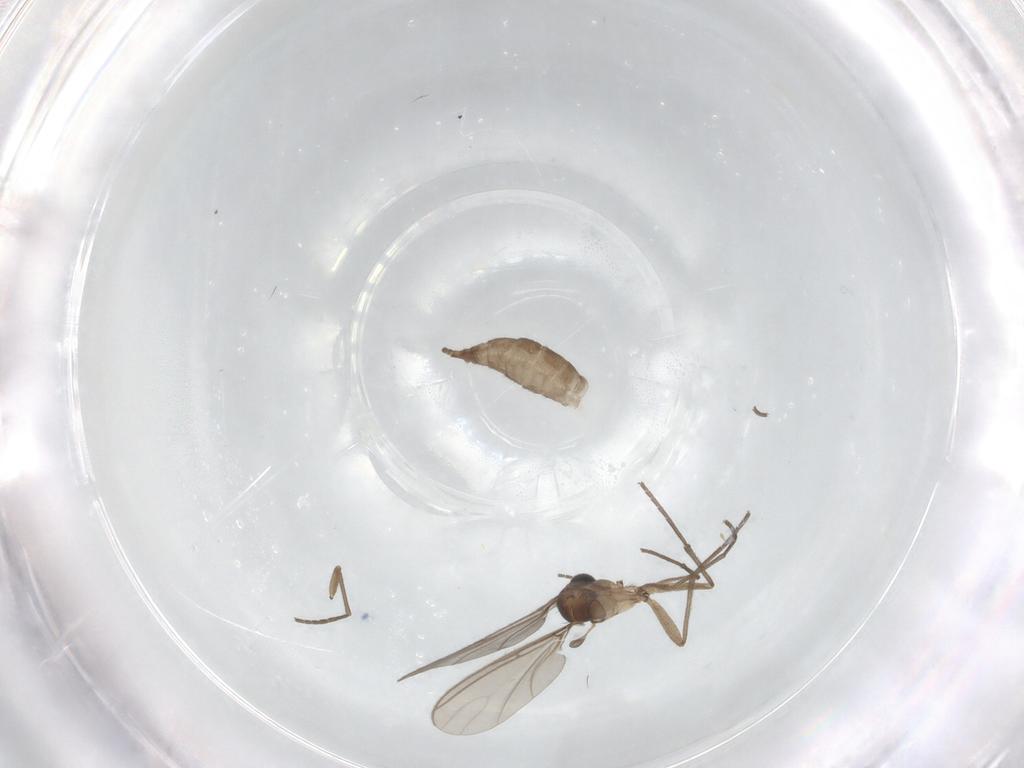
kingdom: Animalia
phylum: Arthropoda
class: Insecta
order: Diptera
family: Sciaridae
